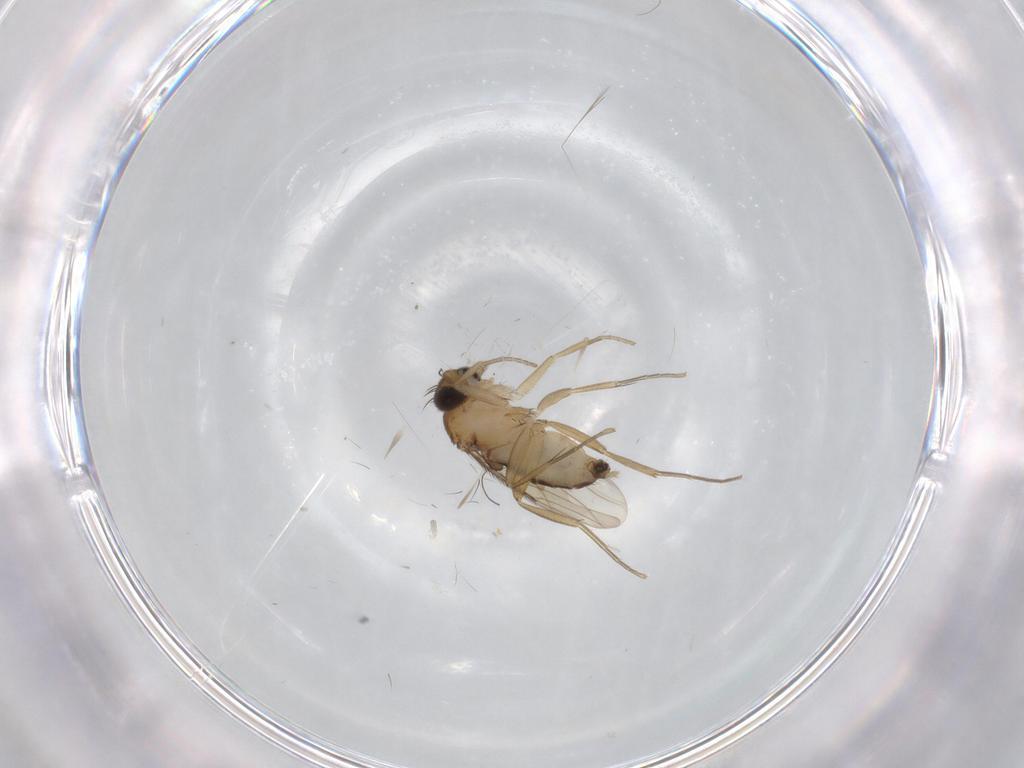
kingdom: Animalia
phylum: Arthropoda
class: Insecta
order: Diptera
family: Phoridae
